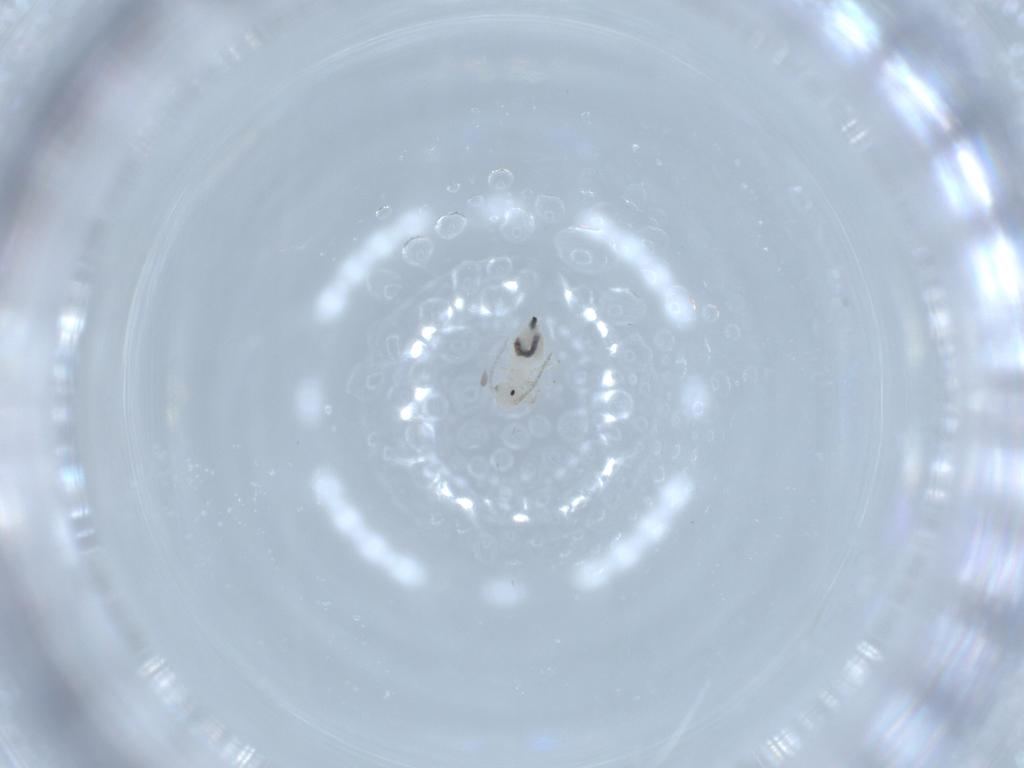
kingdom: Animalia
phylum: Arthropoda
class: Insecta
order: Psocodea
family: Caeciliusidae
